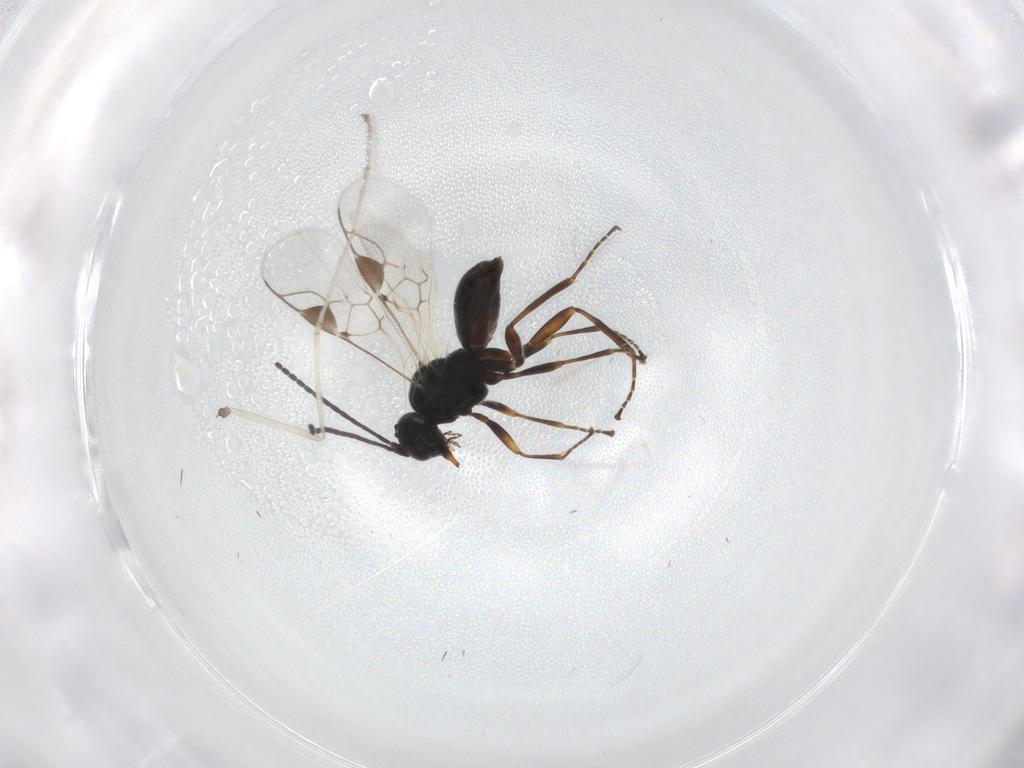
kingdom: Animalia
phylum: Arthropoda
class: Insecta
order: Hymenoptera
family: Braconidae
